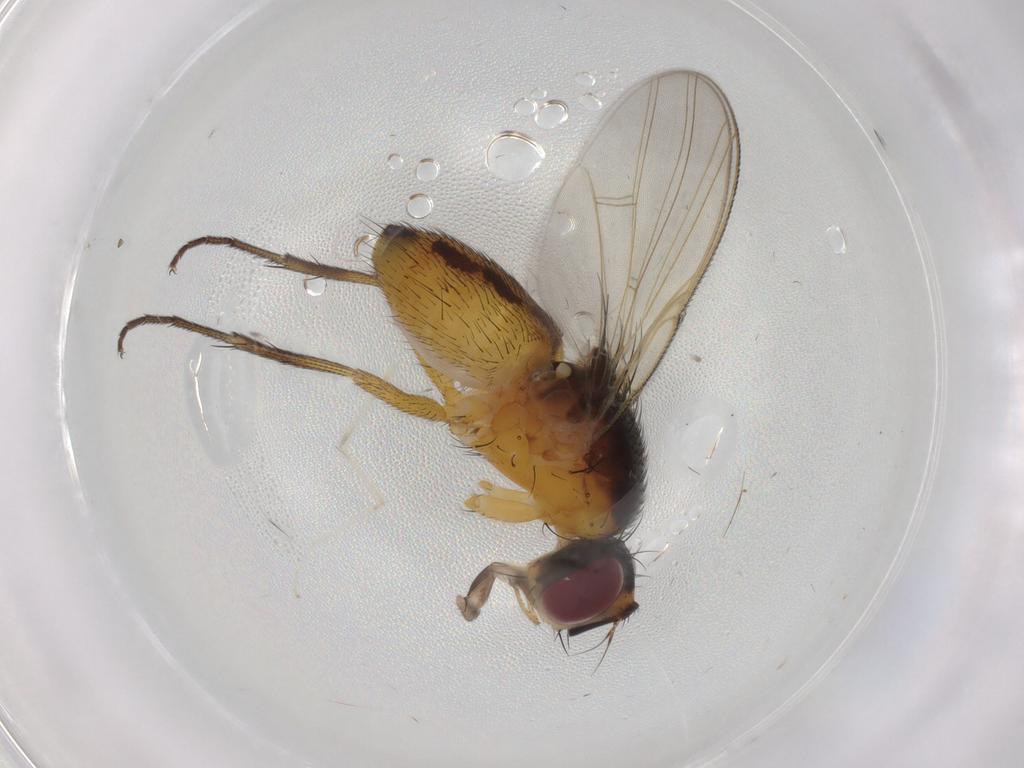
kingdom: Animalia
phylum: Arthropoda
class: Insecta
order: Diptera
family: Muscidae
